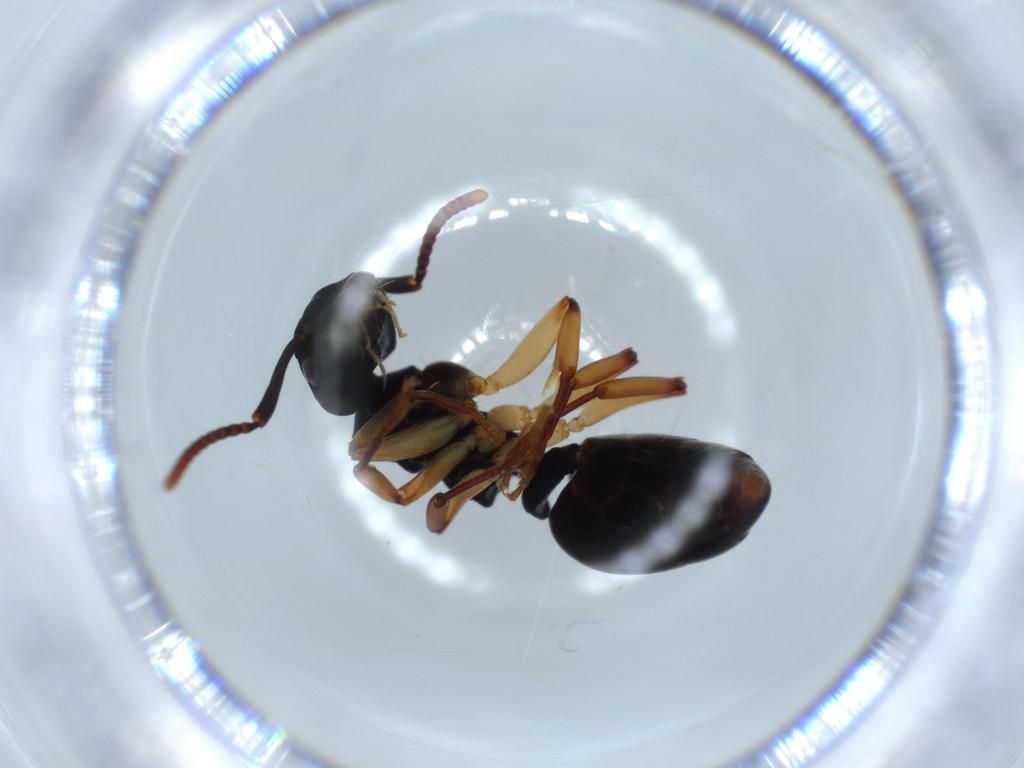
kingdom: Animalia
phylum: Arthropoda
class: Insecta
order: Hymenoptera
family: Formicidae
